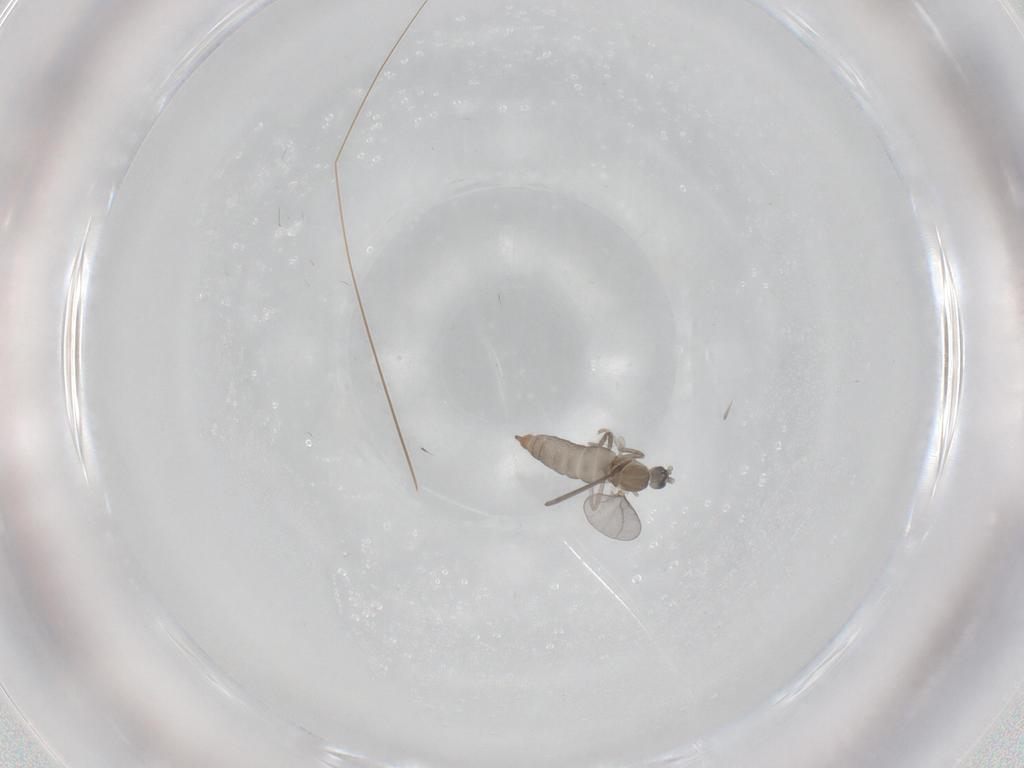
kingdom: Animalia
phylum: Arthropoda
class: Insecta
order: Diptera
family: Cecidomyiidae
